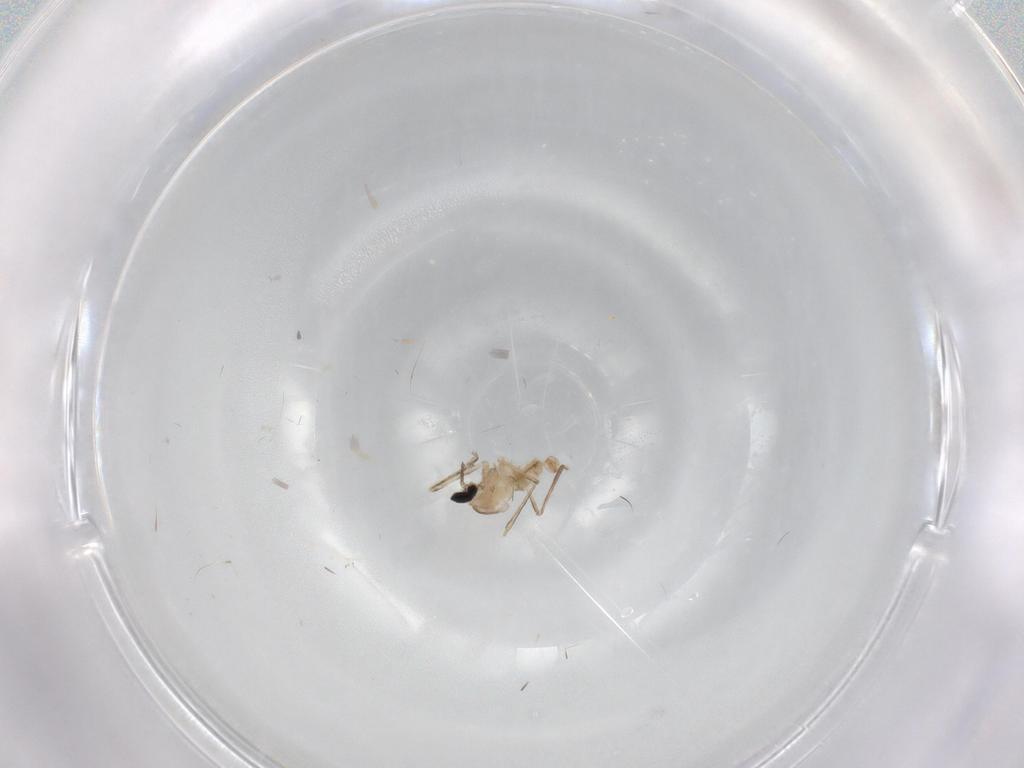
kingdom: Animalia
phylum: Arthropoda
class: Insecta
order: Diptera
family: Cecidomyiidae
